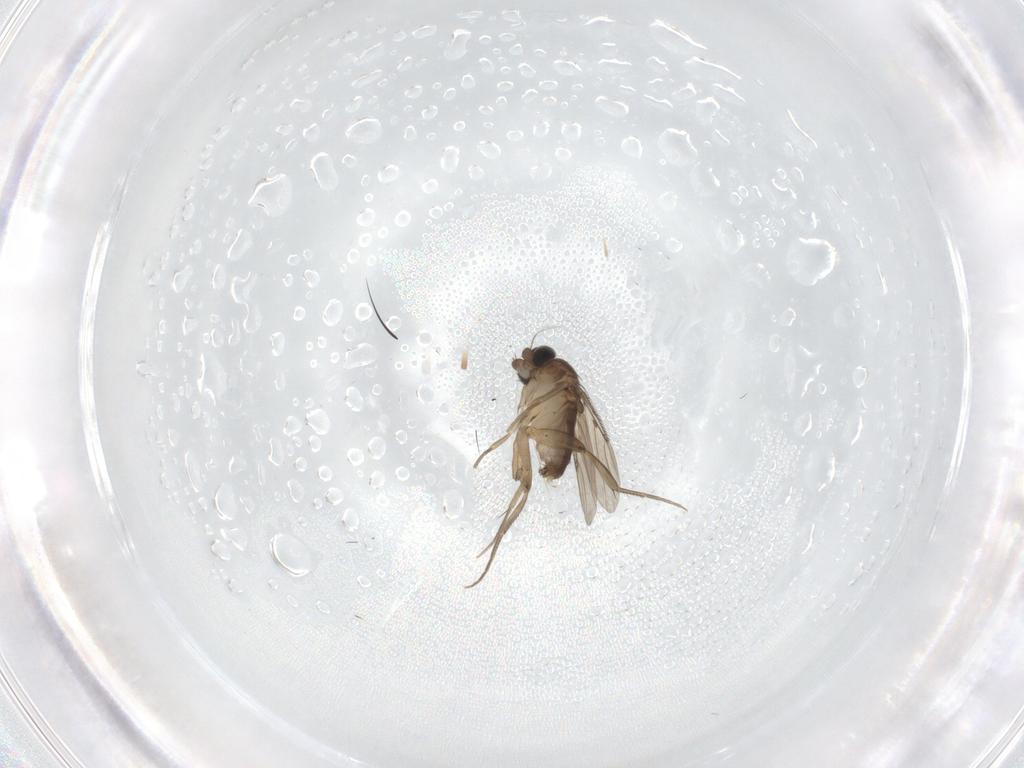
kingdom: Animalia
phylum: Arthropoda
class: Insecta
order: Diptera
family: Phoridae
